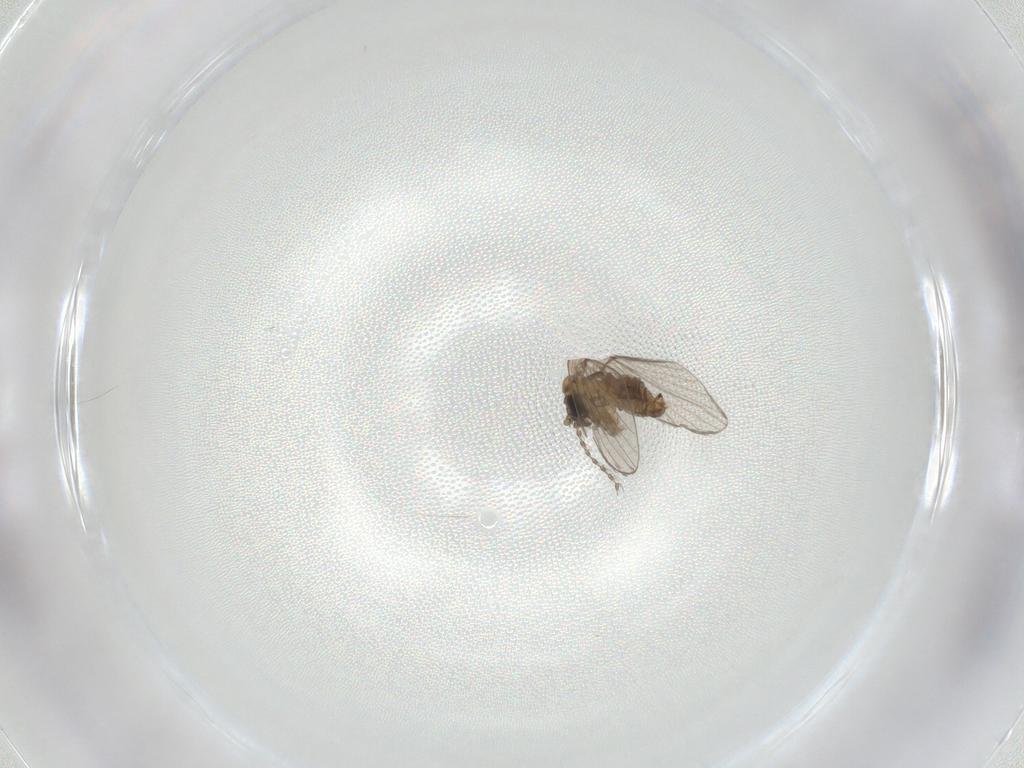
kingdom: Animalia
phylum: Arthropoda
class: Insecta
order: Diptera
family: Psychodidae
